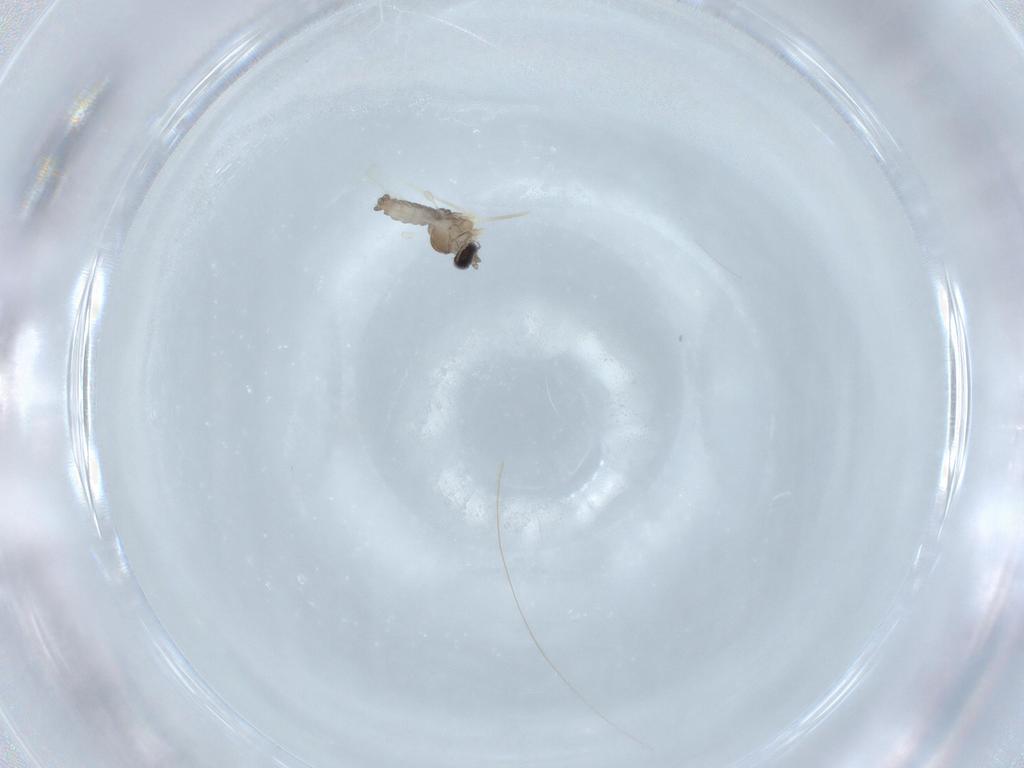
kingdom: Animalia
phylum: Arthropoda
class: Insecta
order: Diptera
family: Cecidomyiidae
